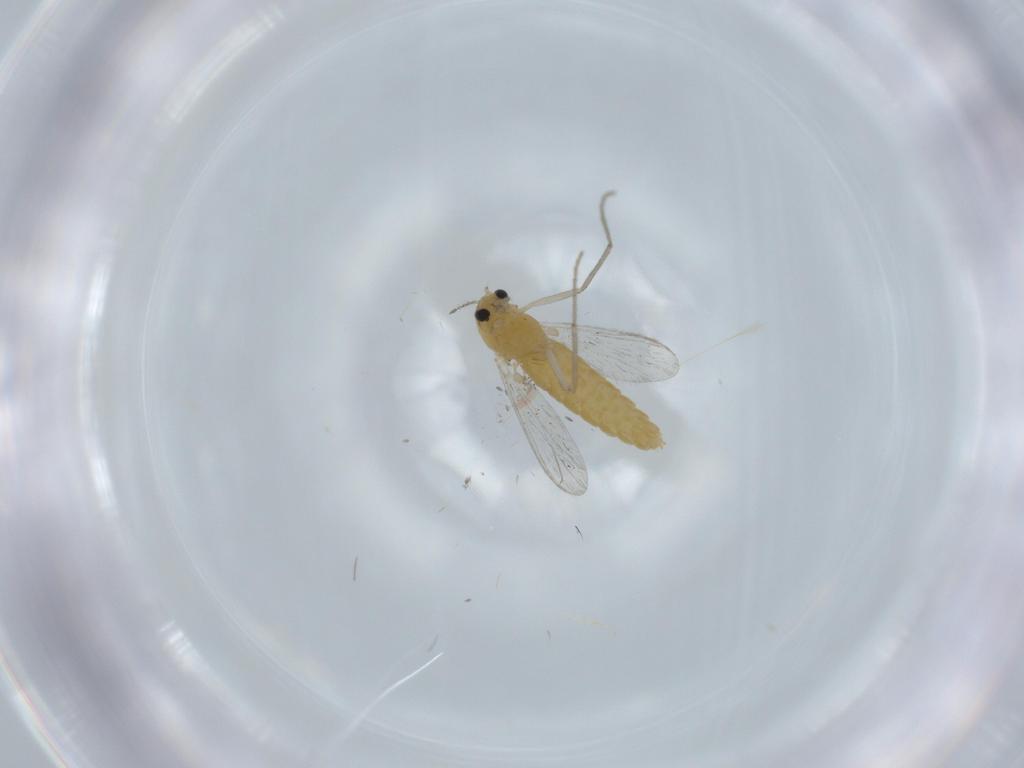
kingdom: Animalia
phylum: Arthropoda
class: Insecta
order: Diptera
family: Chironomidae
